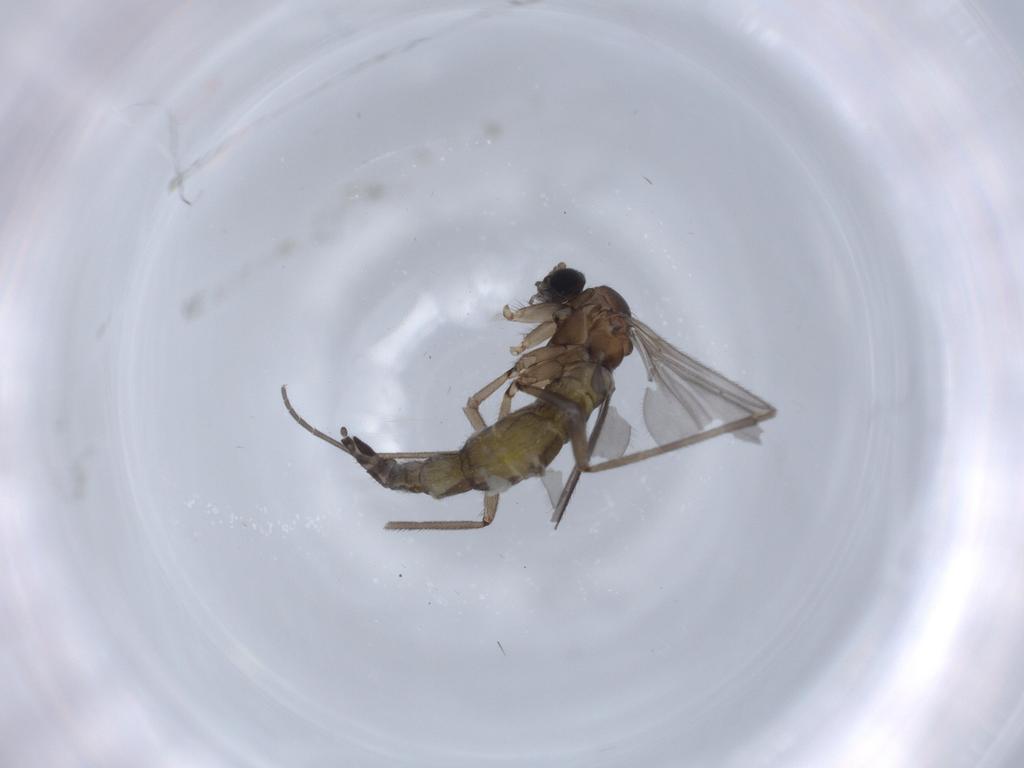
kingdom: Animalia
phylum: Arthropoda
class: Insecta
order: Diptera
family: Sciaridae
